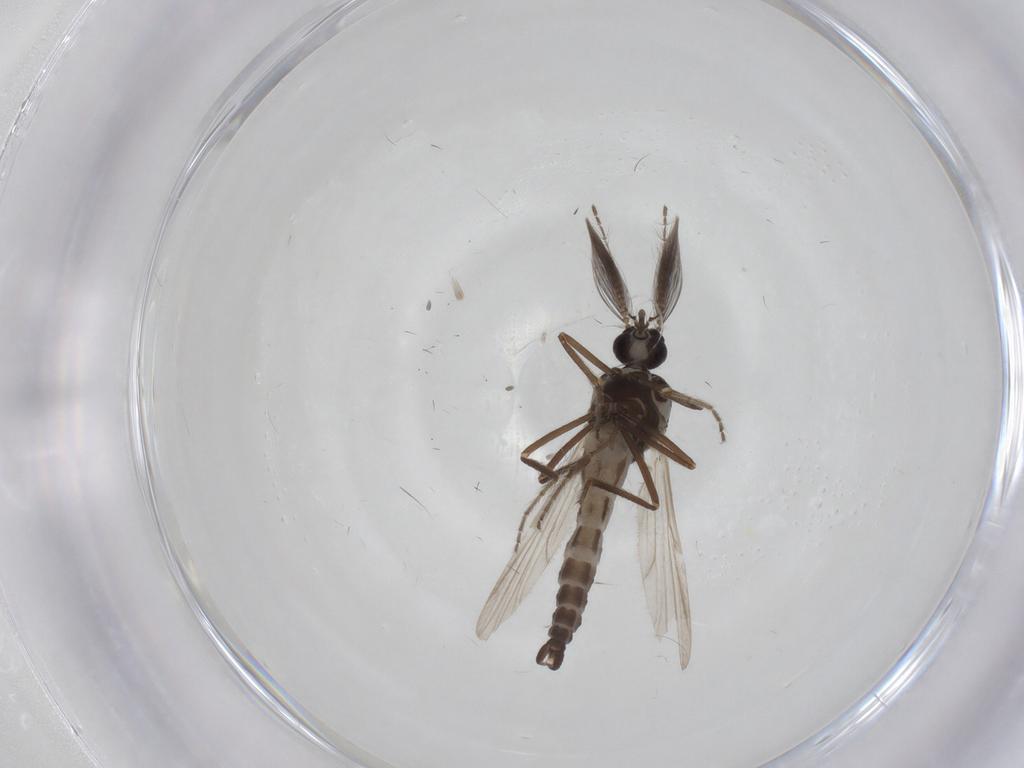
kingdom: Animalia
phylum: Arthropoda
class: Insecta
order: Diptera
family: Ceratopogonidae
